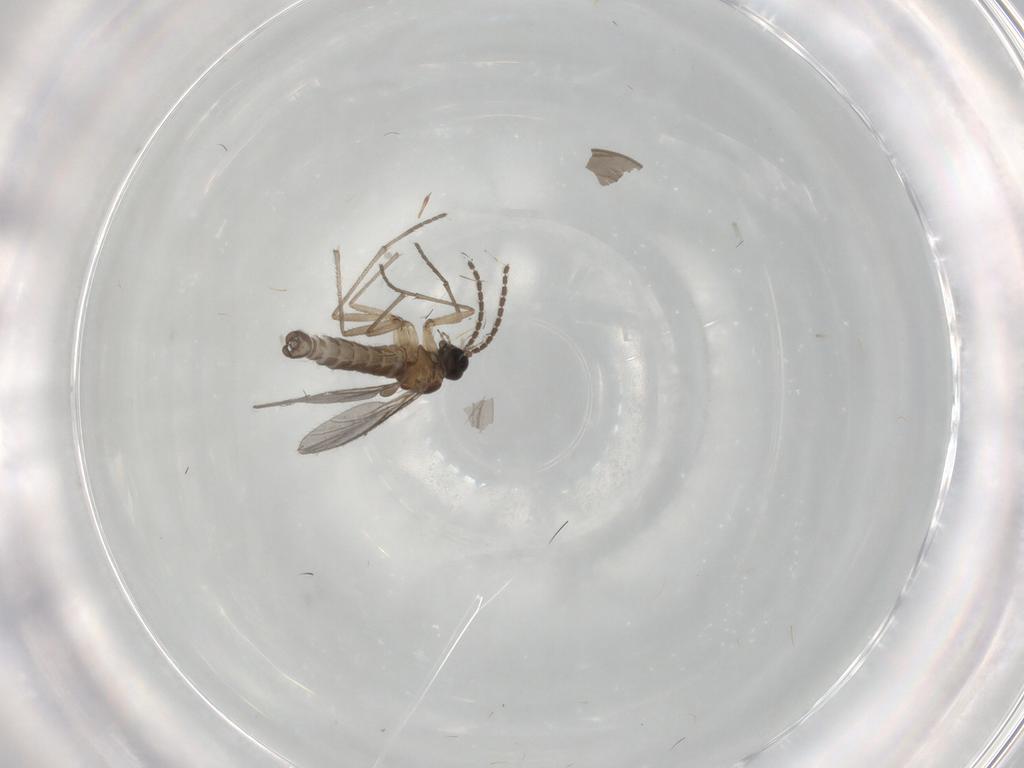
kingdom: Animalia
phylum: Arthropoda
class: Insecta
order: Diptera
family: Sciaridae
